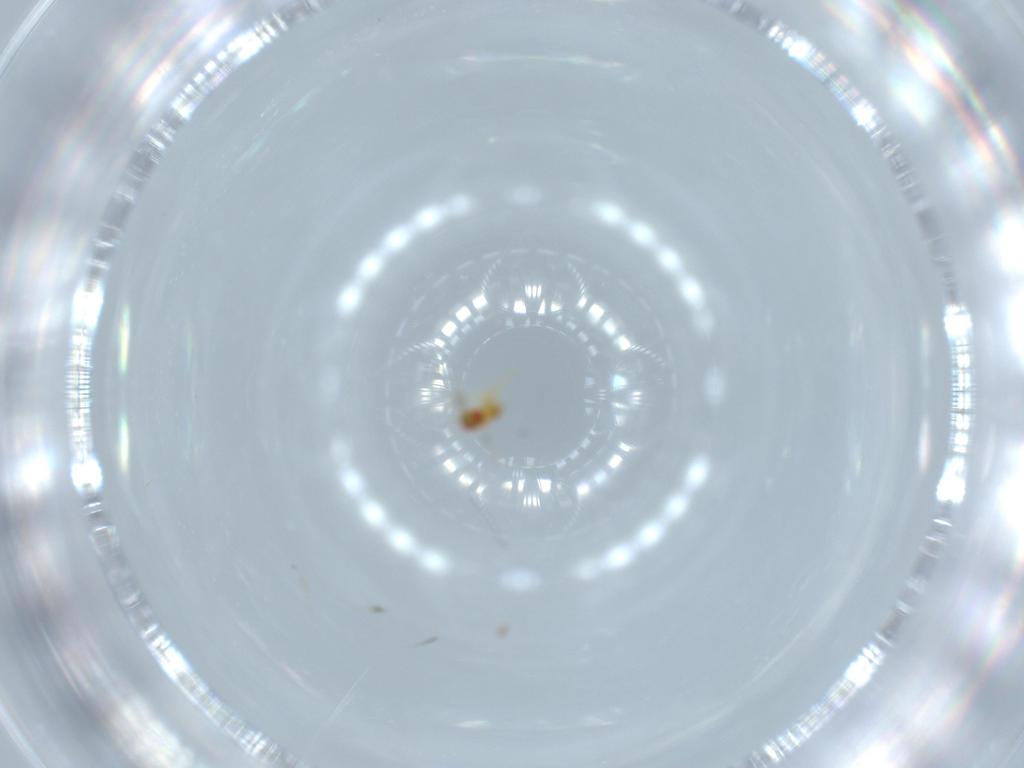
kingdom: Animalia
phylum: Arthropoda
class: Insecta
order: Hymenoptera
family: Trichogrammatidae
